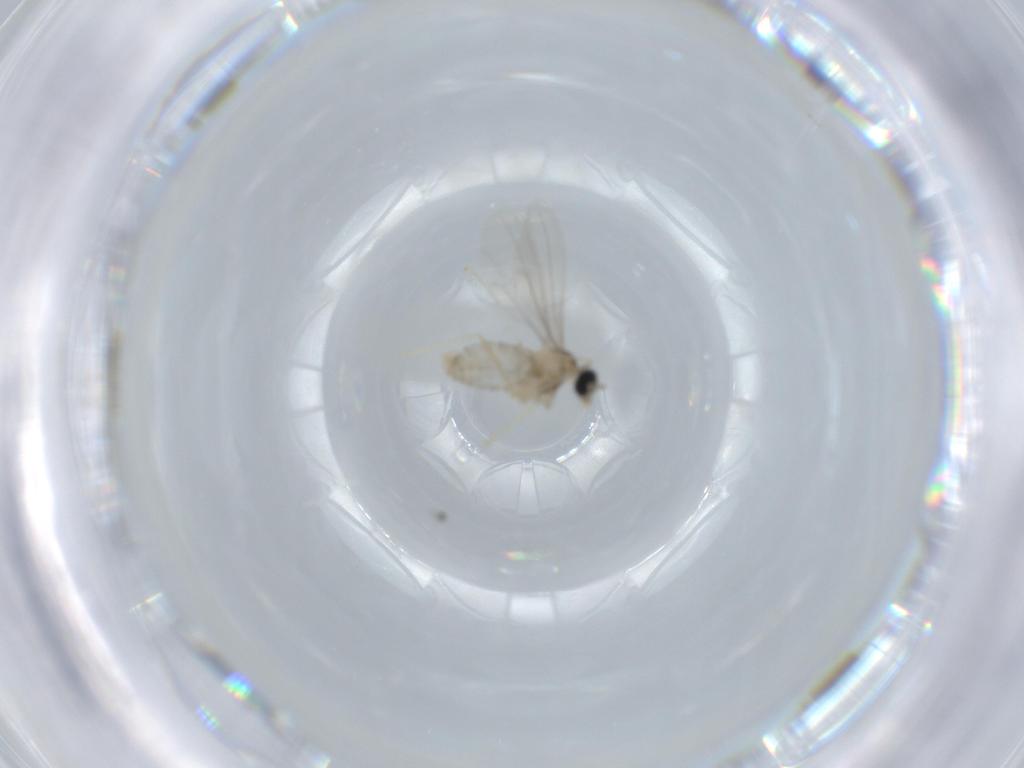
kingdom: Animalia
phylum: Arthropoda
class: Insecta
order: Diptera
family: Cecidomyiidae
